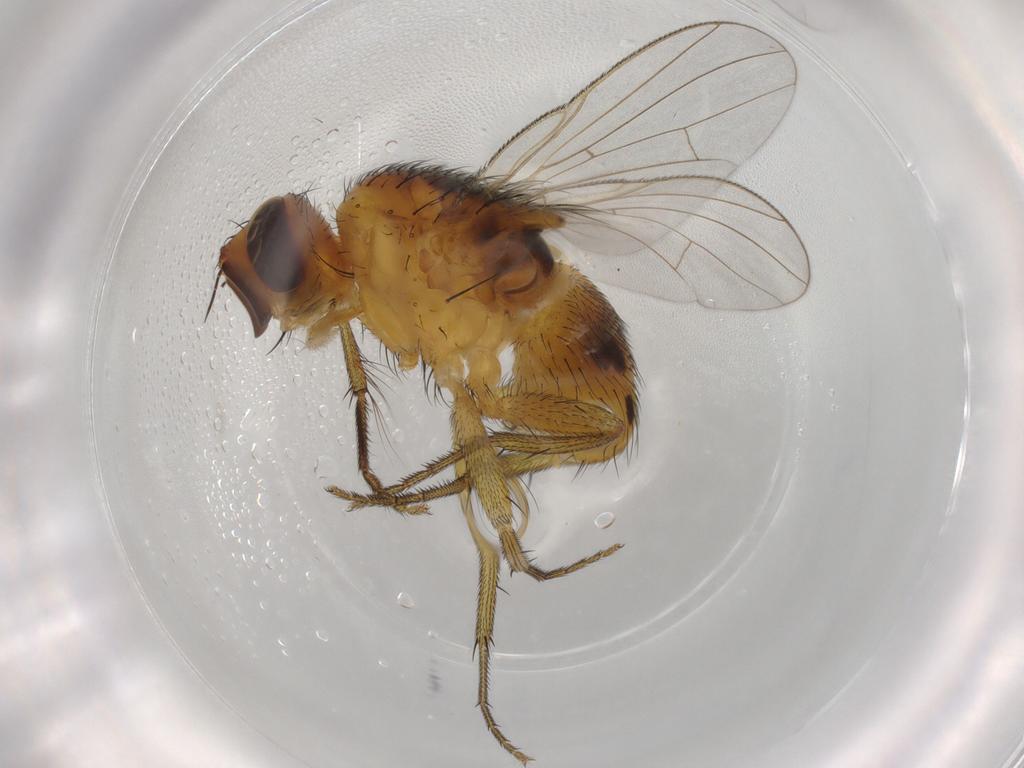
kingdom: Animalia
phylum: Arthropoda
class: Insecta
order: Diptera
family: Muscidae
